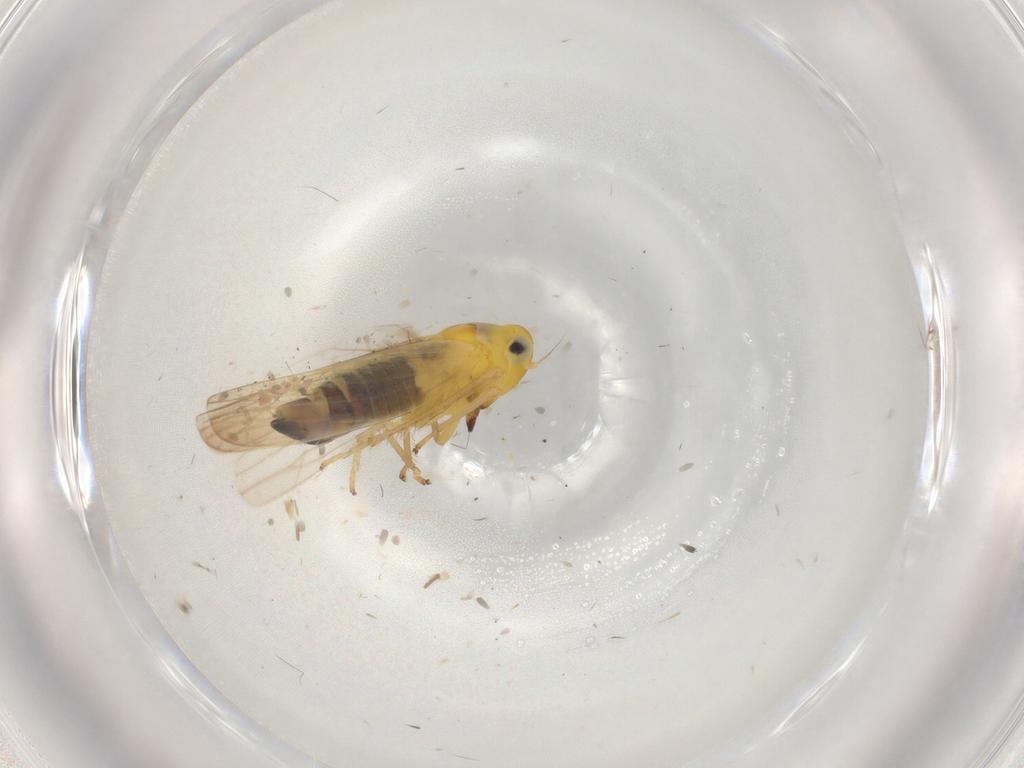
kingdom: Animalia
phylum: Arthropoda
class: Insecta
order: Hemiptera
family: Cicadellidae
